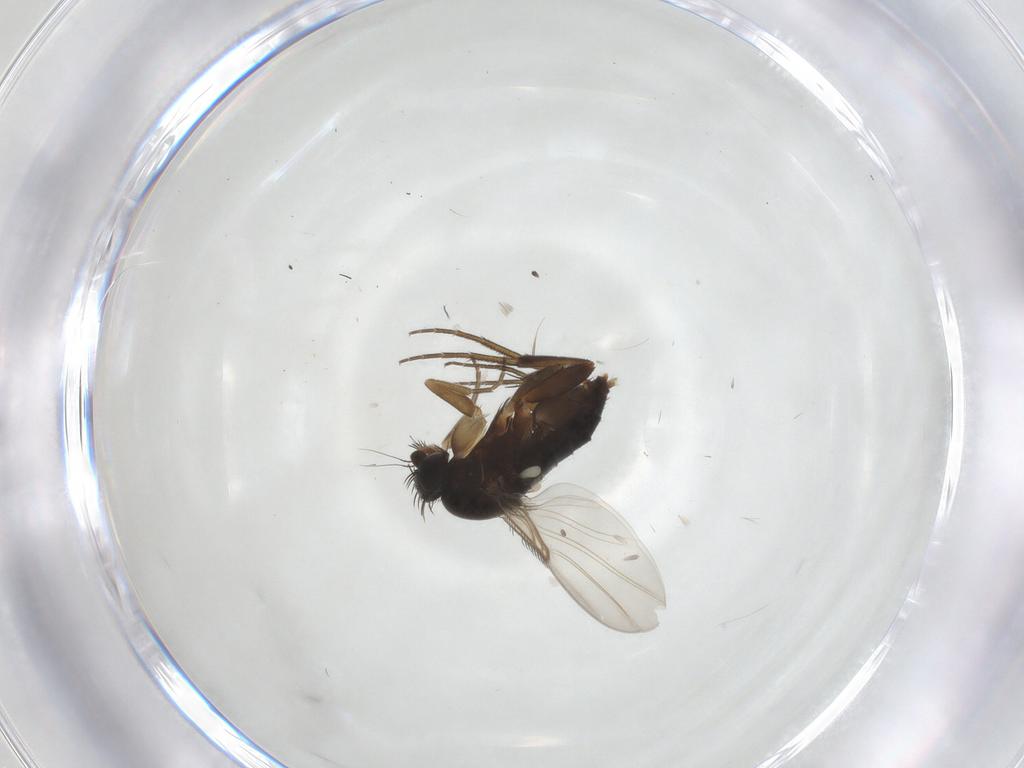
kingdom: Animalia
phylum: Arthropoda
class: Insecta
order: Diptera
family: Phoridae
